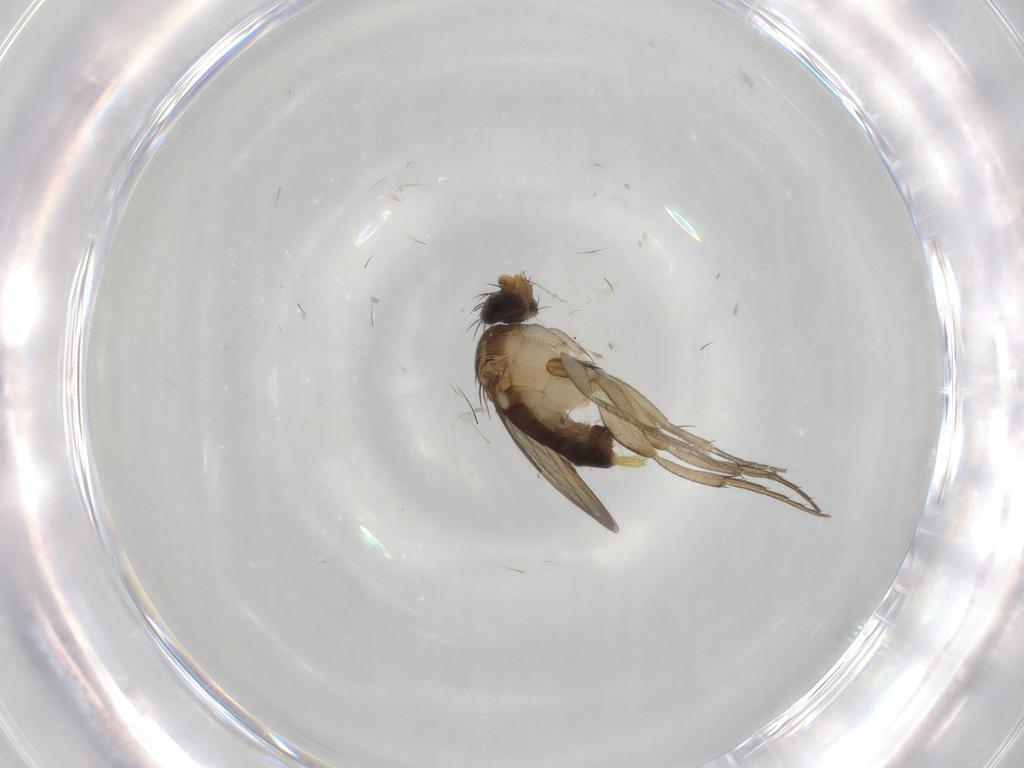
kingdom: Animalia
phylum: Arthropoda
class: Insecta
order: Diptera
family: Phoridae
